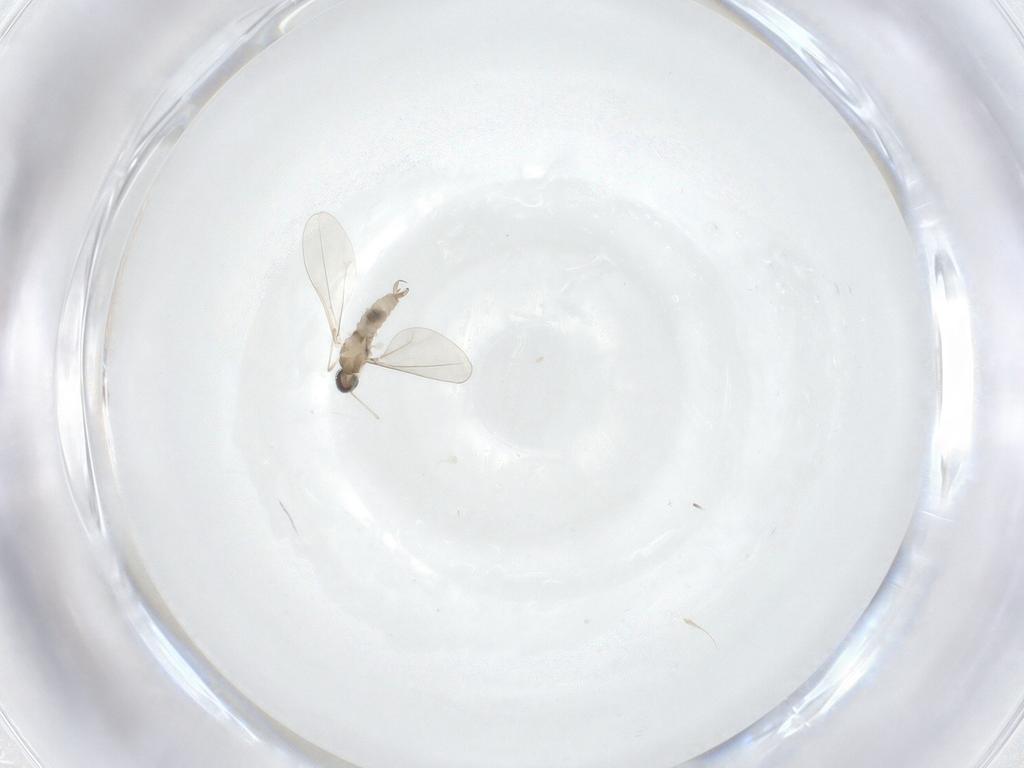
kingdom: Animalia
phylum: Arthropoda
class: Insecta
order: Diptera
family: Cecidomyiidae
